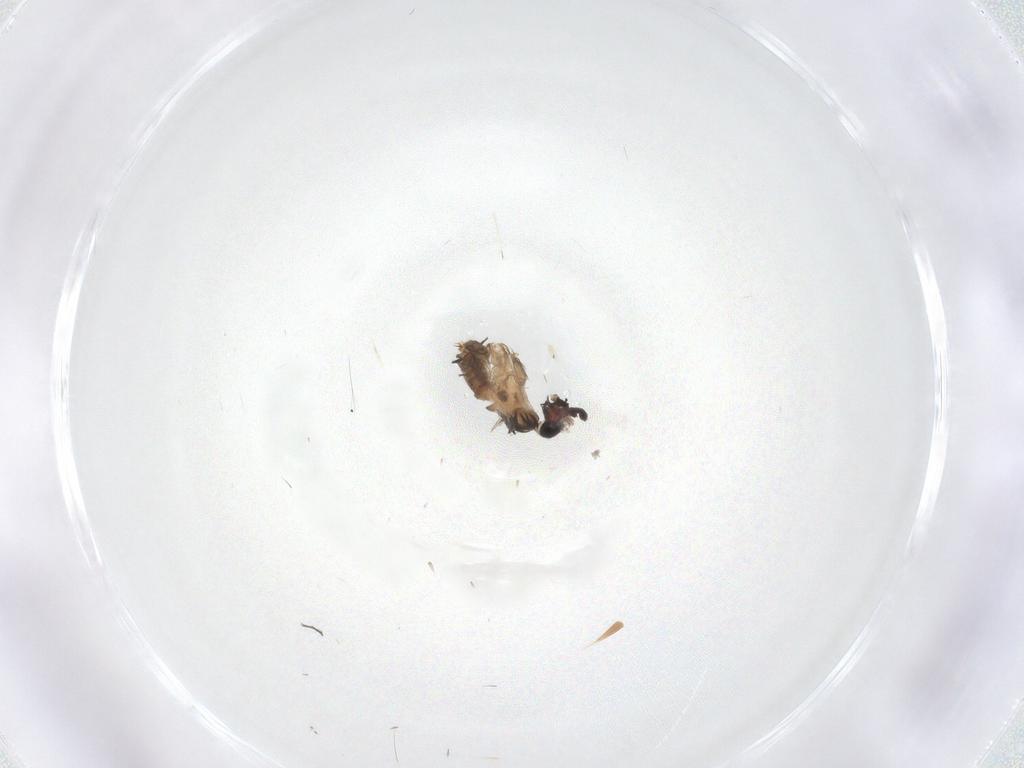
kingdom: Animalia
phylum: Arthropoda
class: Insecta
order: Diptera
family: Psychodidae
